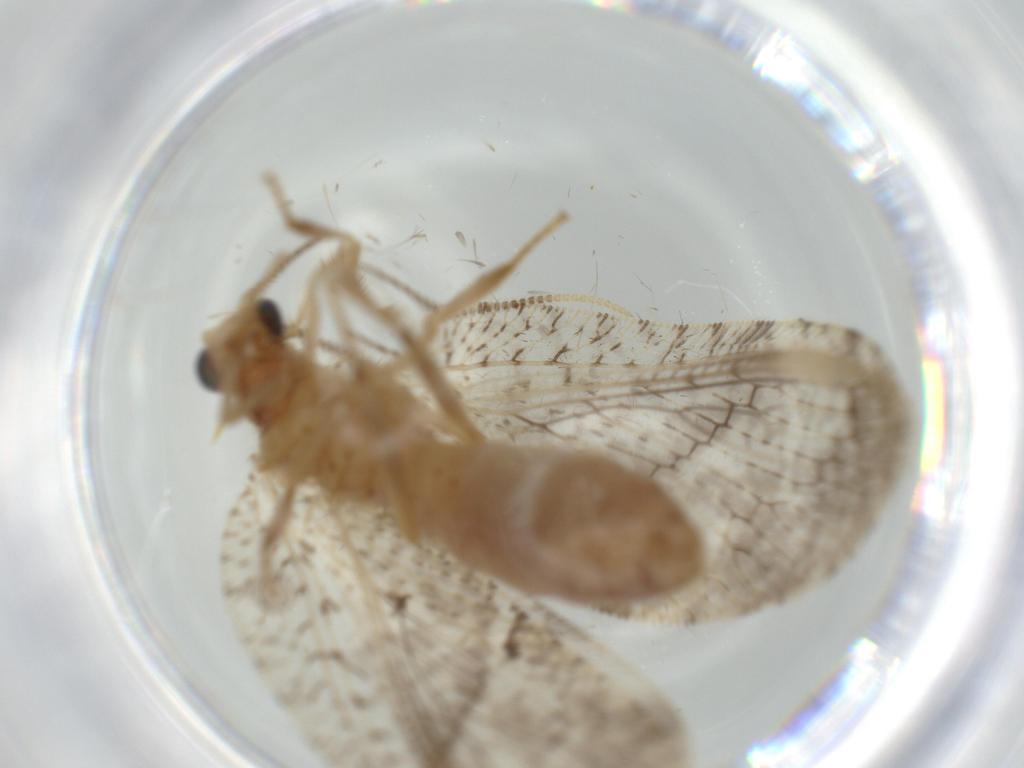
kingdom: Animalia
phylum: Arthropoda
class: Insecta
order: Neuroptera
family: Hemerobiidae
